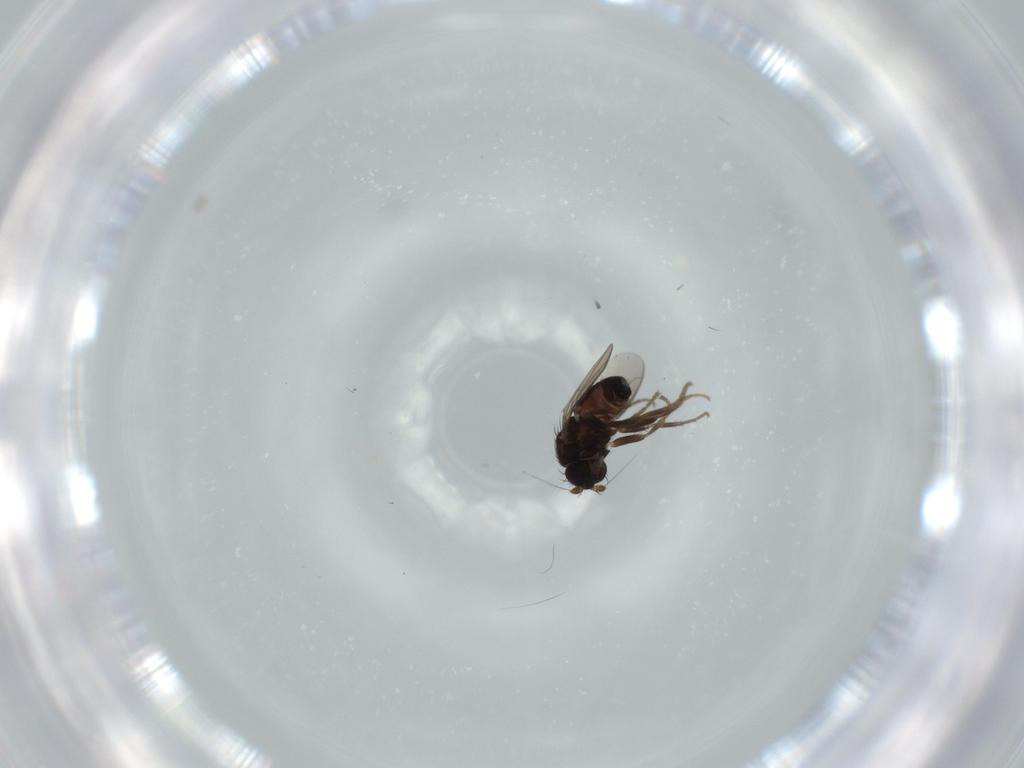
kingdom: Animalia
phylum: Arthropoda
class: Insecta
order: Diptera
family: Sphaeroceridae
